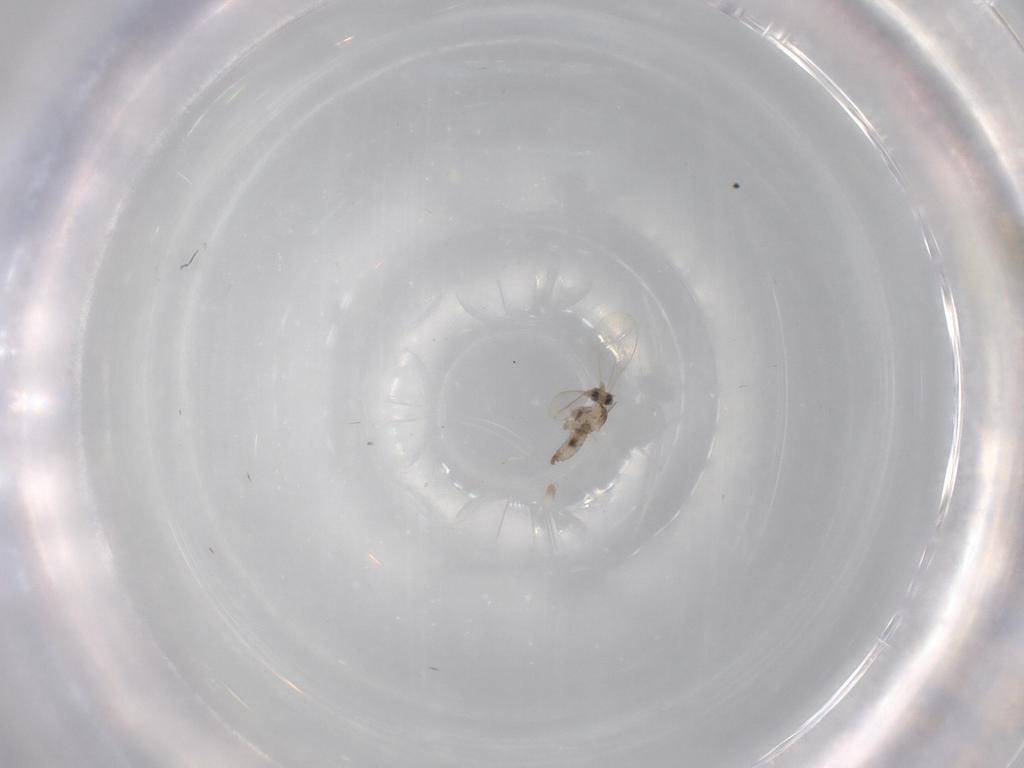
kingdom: Animalia
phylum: Arthropoda
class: Insecta
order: Diptera
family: Cecidomyiidae
